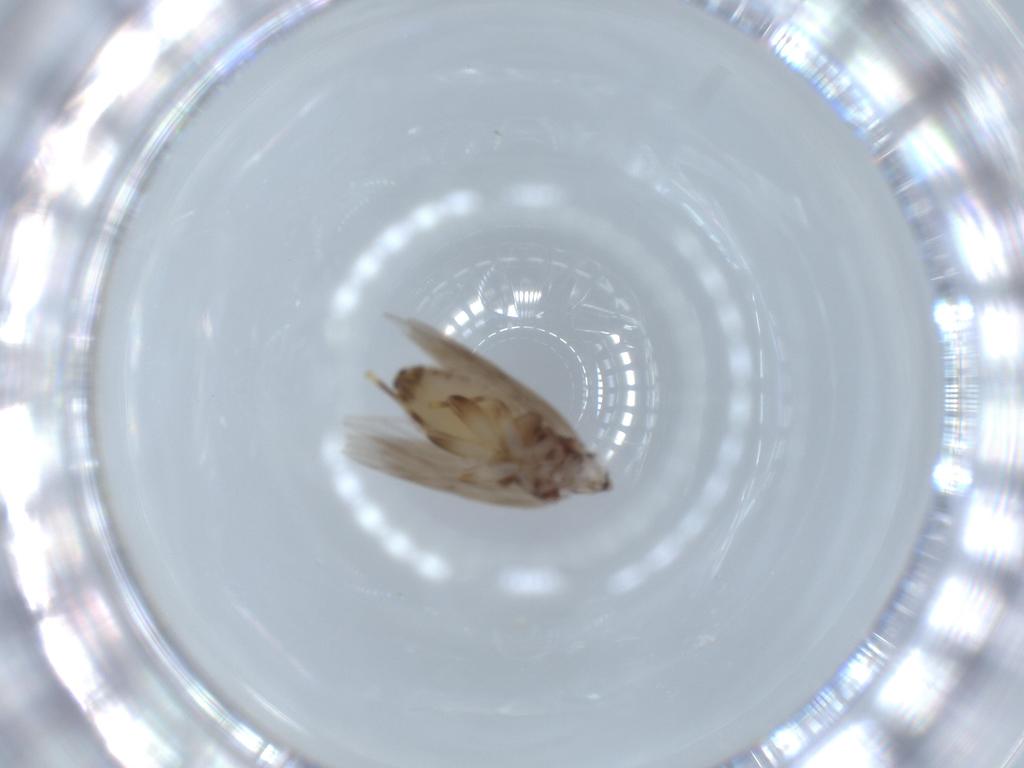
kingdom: Animalia
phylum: Arthropoda
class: Insecta
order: Psocodea
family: Lepidopsocidae
